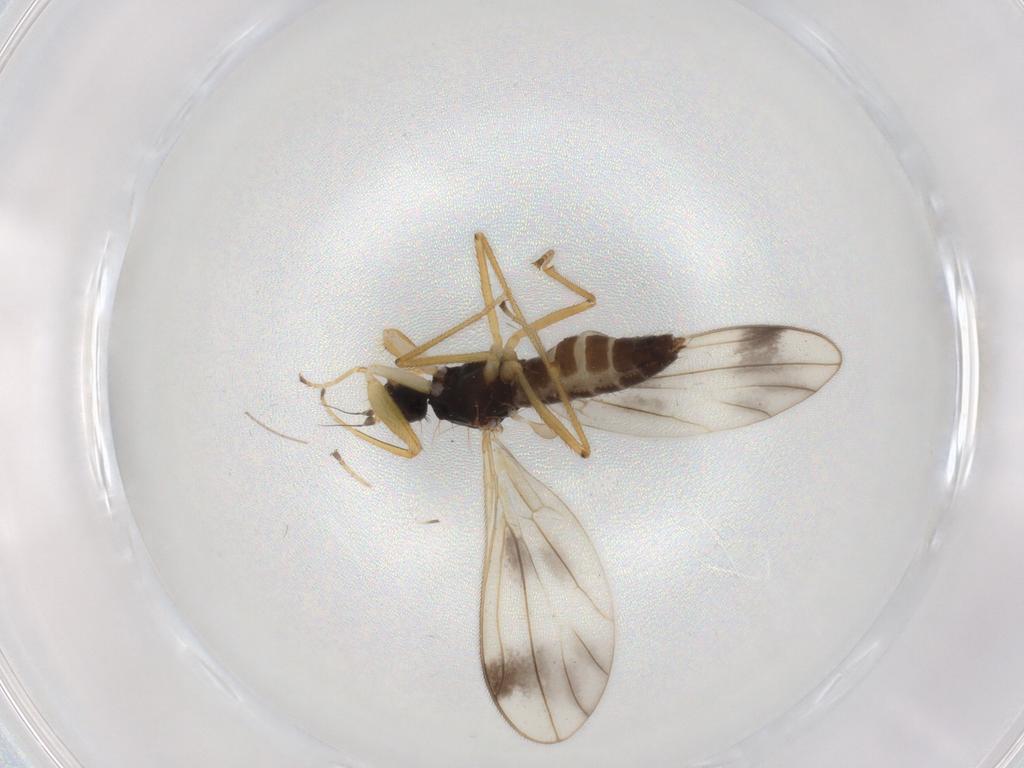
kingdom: Animalia
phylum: Arthropoda
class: Insecta
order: Diptera
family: Chironomidae
